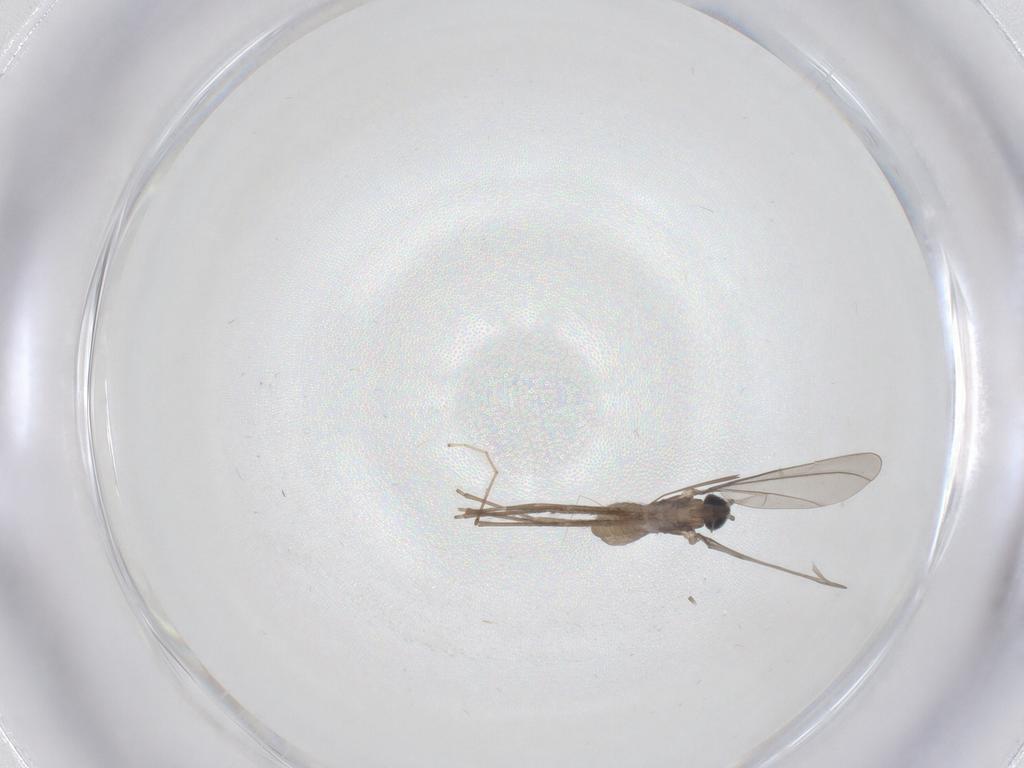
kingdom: Animalia
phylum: Arthropoda
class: Insecta
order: Diptera
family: Cecidomyiidae
